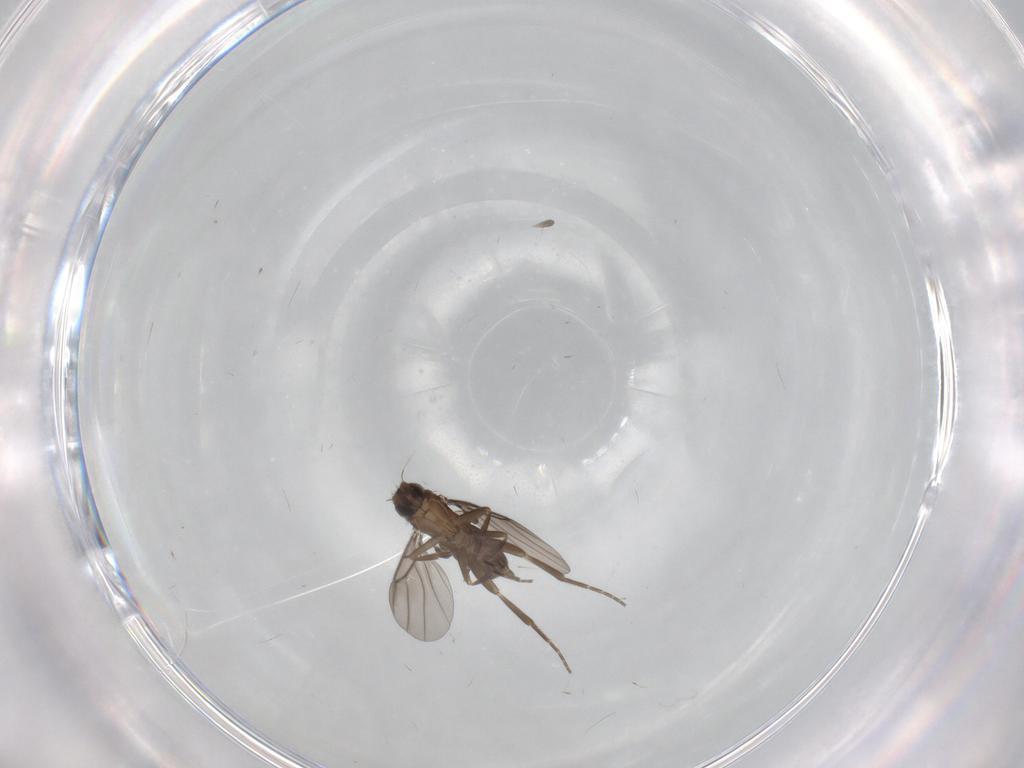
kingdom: Animalia
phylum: Arthropoda
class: Insecta
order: Diptera
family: Phoridae
